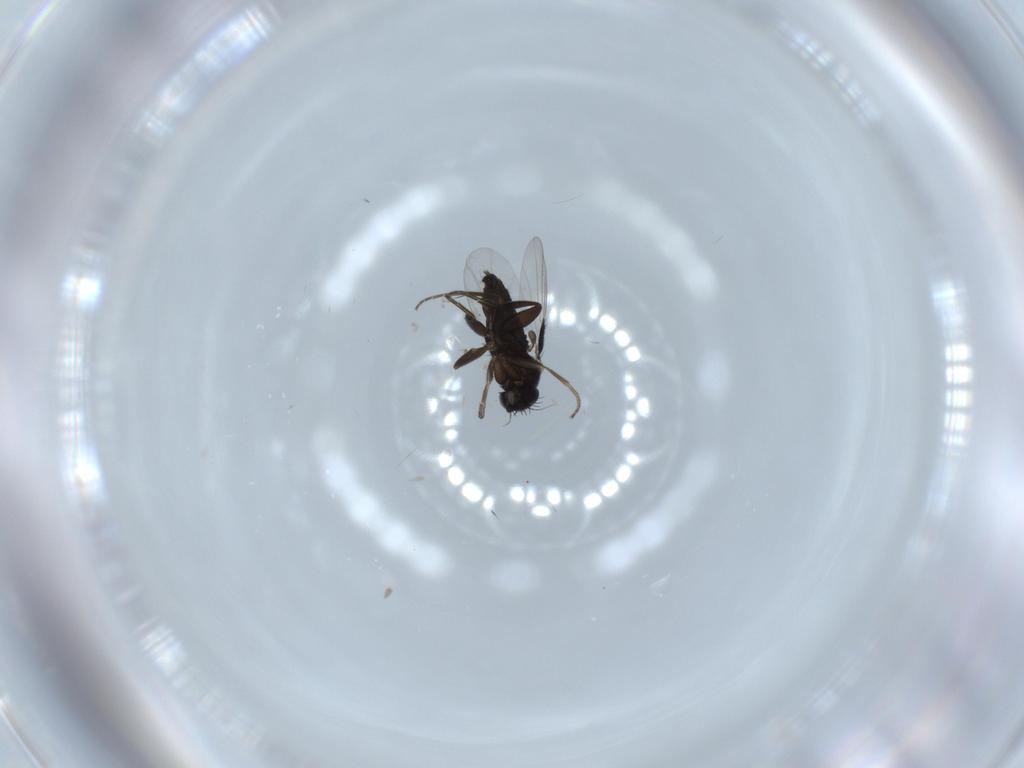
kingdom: Animalia
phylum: Arthropoda
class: Insecta
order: Diptera
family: Phoridae
